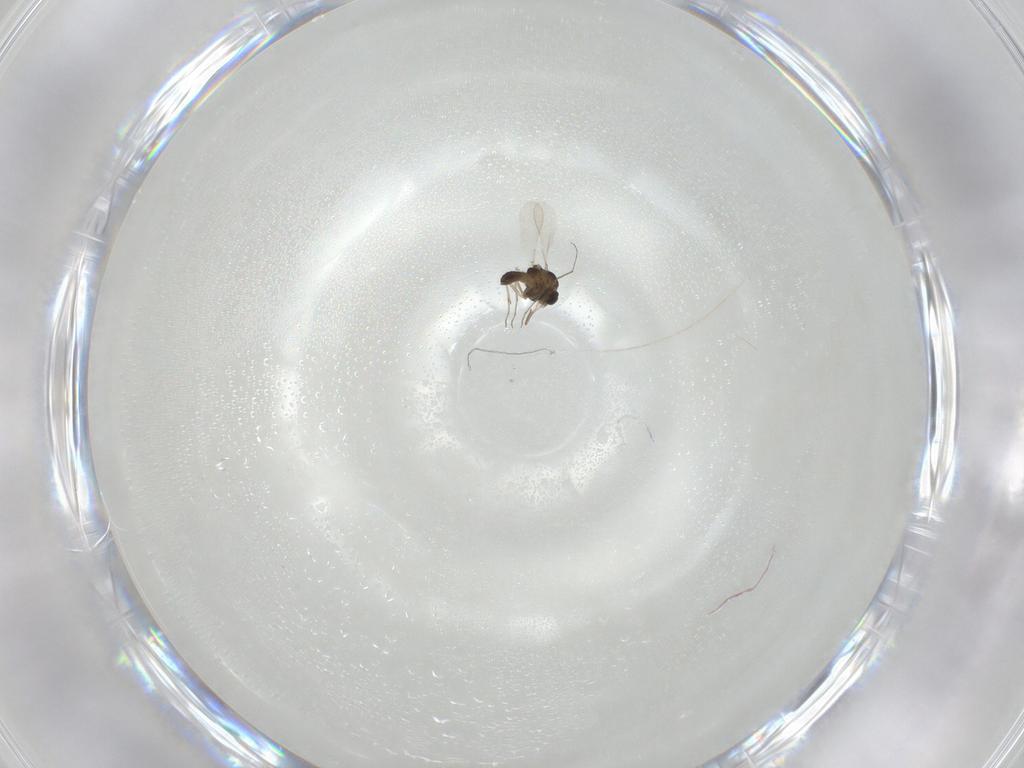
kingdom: Animalia
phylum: Arthropoda
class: Insecta
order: Diptera
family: Chironomidae
